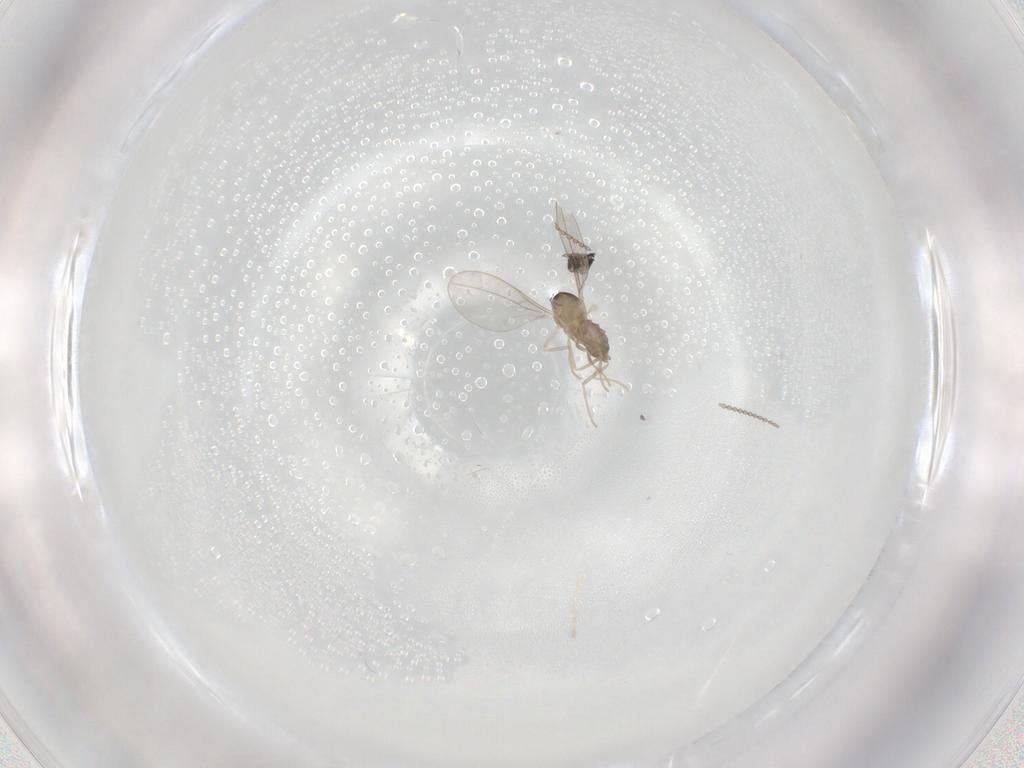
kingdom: Animalia
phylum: Arthropoda
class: Insecta
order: Diptera
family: Cecidomyiidae
